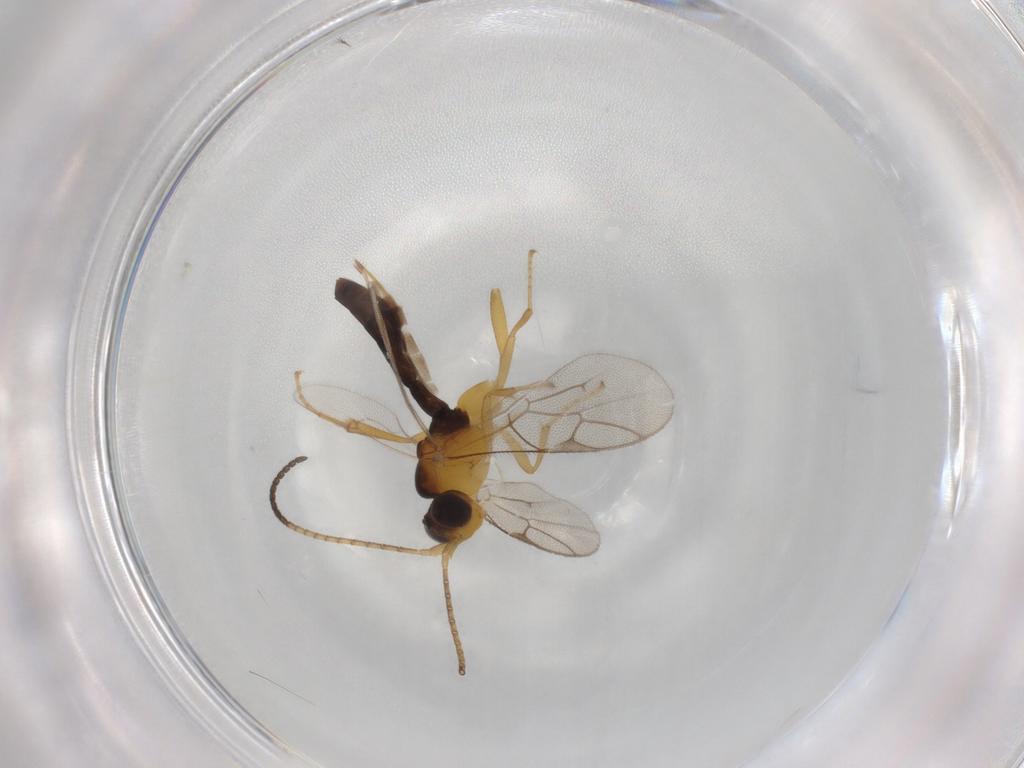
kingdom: Animalia
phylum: Arthropoda
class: Insecta
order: Hymenoptera
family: Ichneumonidae
